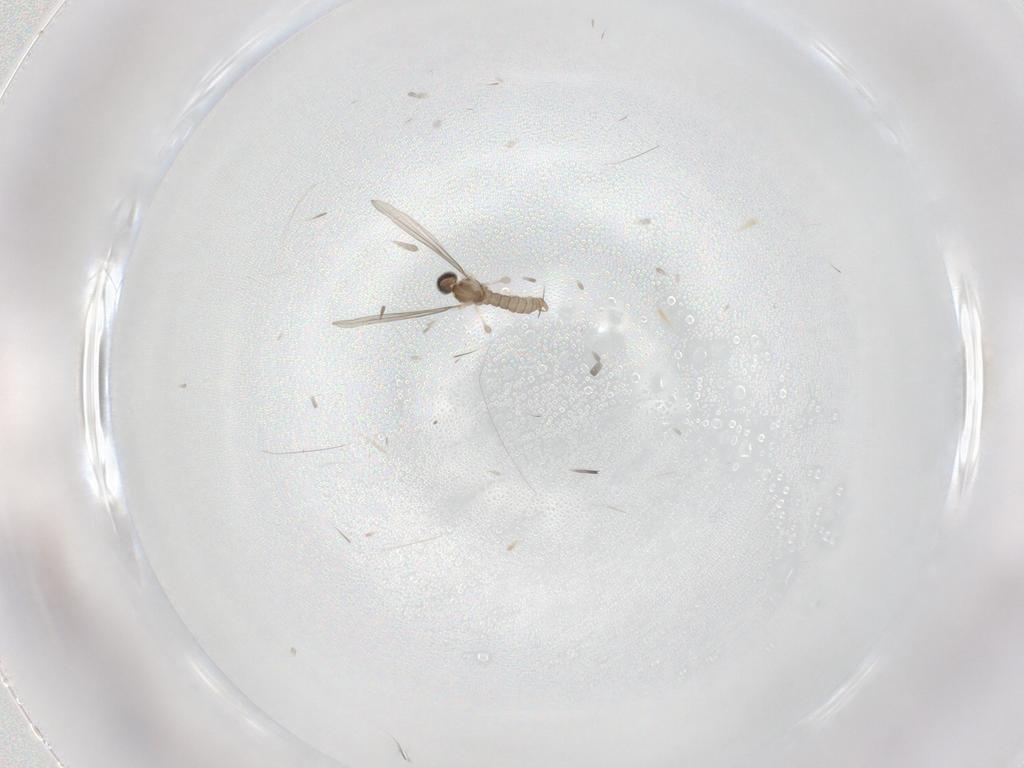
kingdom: Animalia
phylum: Arthropoda
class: Insecta
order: Diptera
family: Cecidomyiidae
